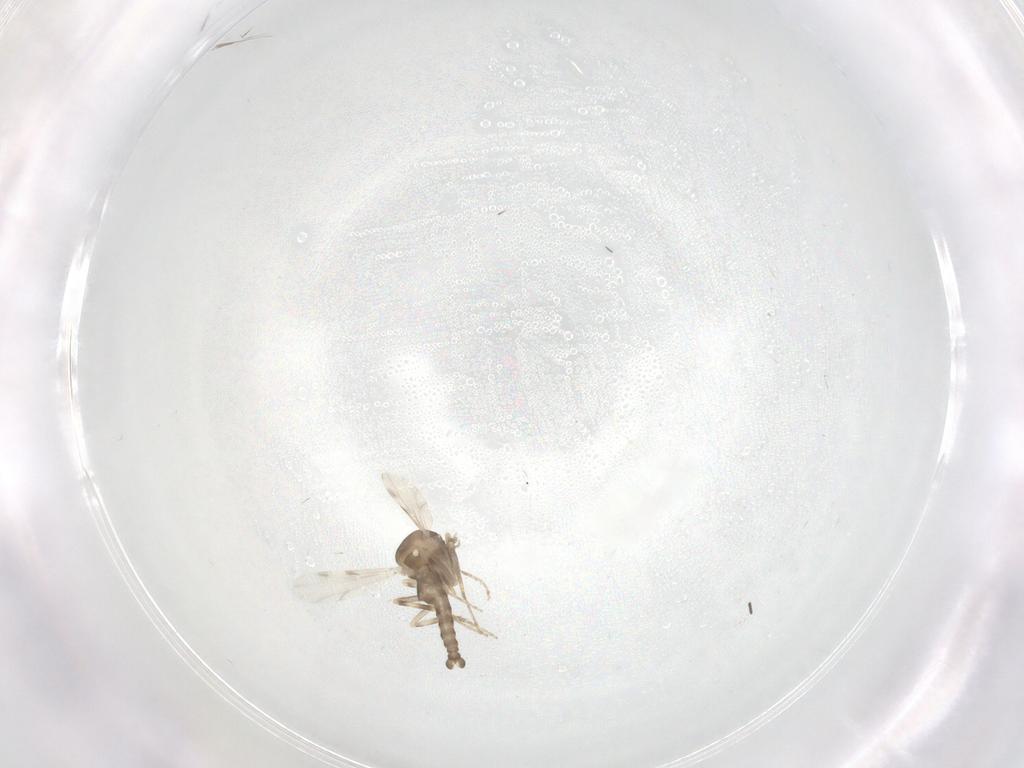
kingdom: Animalia
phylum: Arthropoda
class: Insecta
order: Diptera
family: Ceratopogonidae
